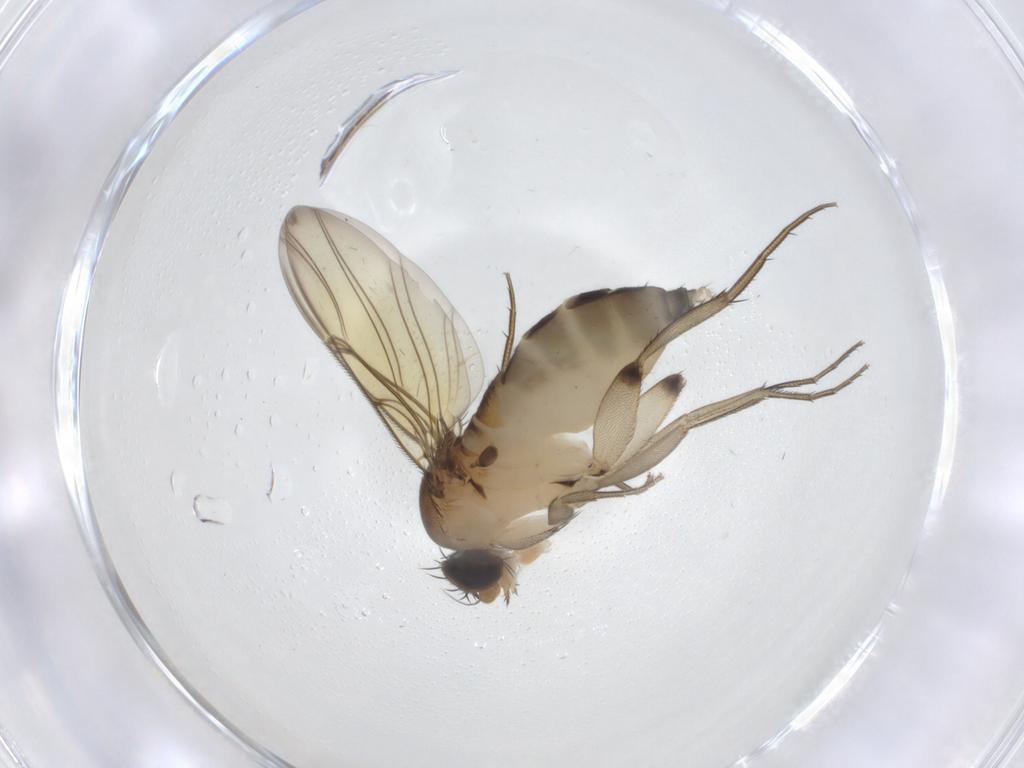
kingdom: Animalia
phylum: Arthropoda
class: Insecta
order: Diptera
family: Phoridae
